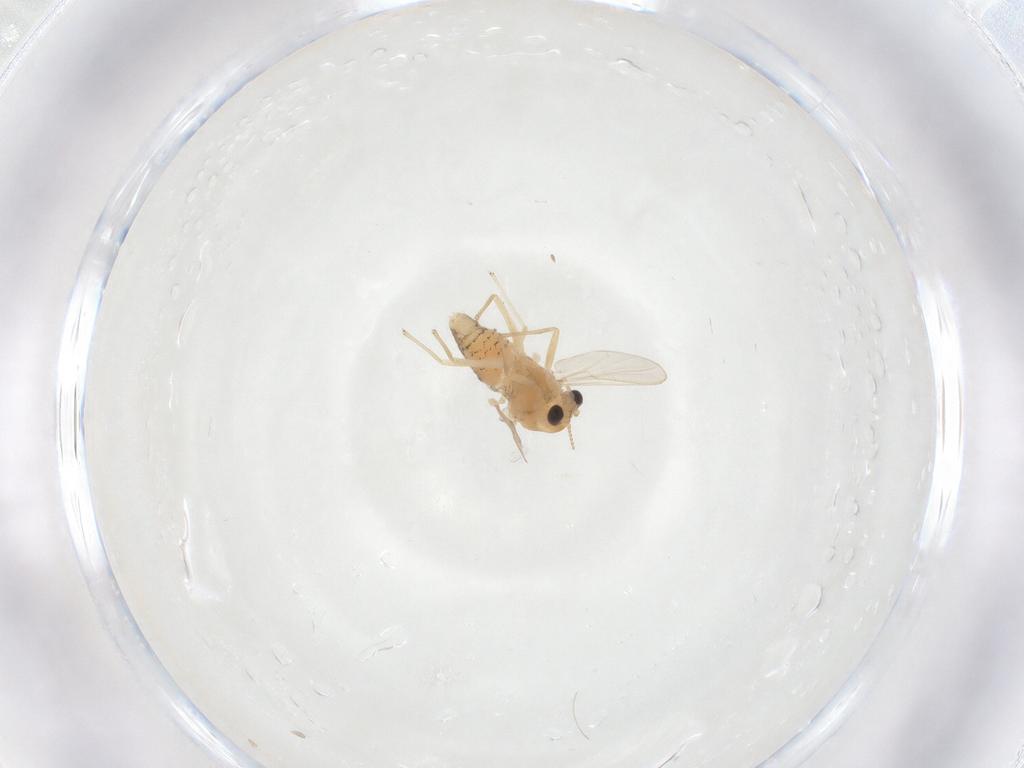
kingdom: Animalia
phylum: Arthropoda
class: Insecta
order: Diptera
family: Chironomidae
